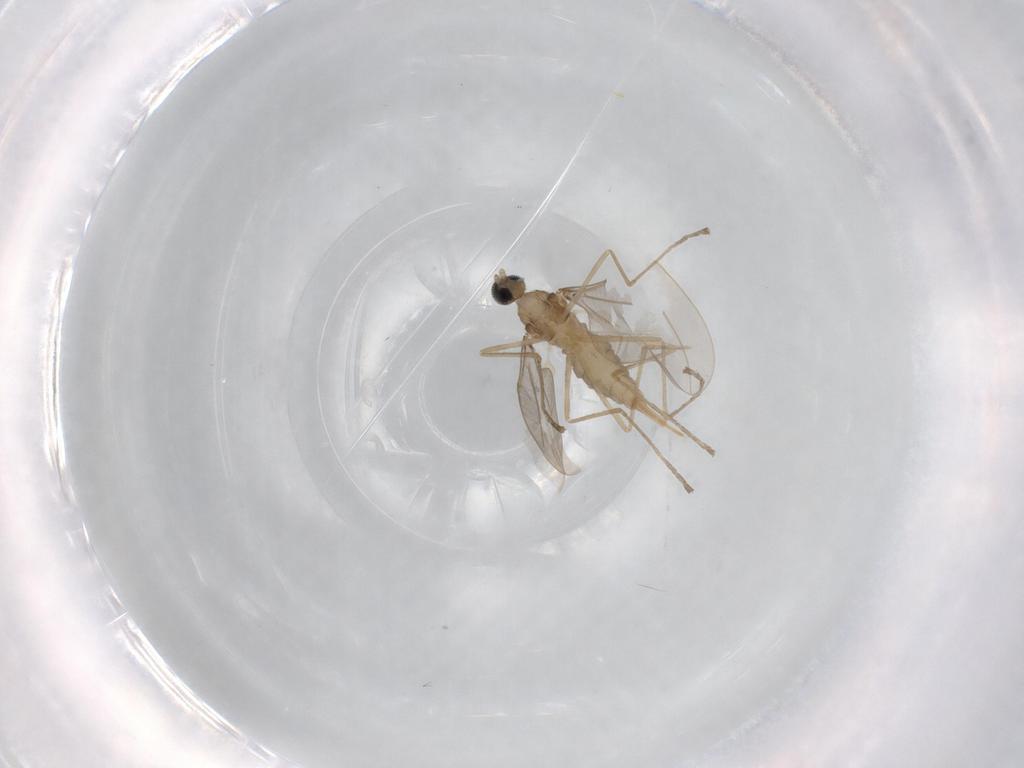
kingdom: Animalia
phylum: Arthropoda
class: Insecta
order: Diptera
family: Cecidomyiidae
